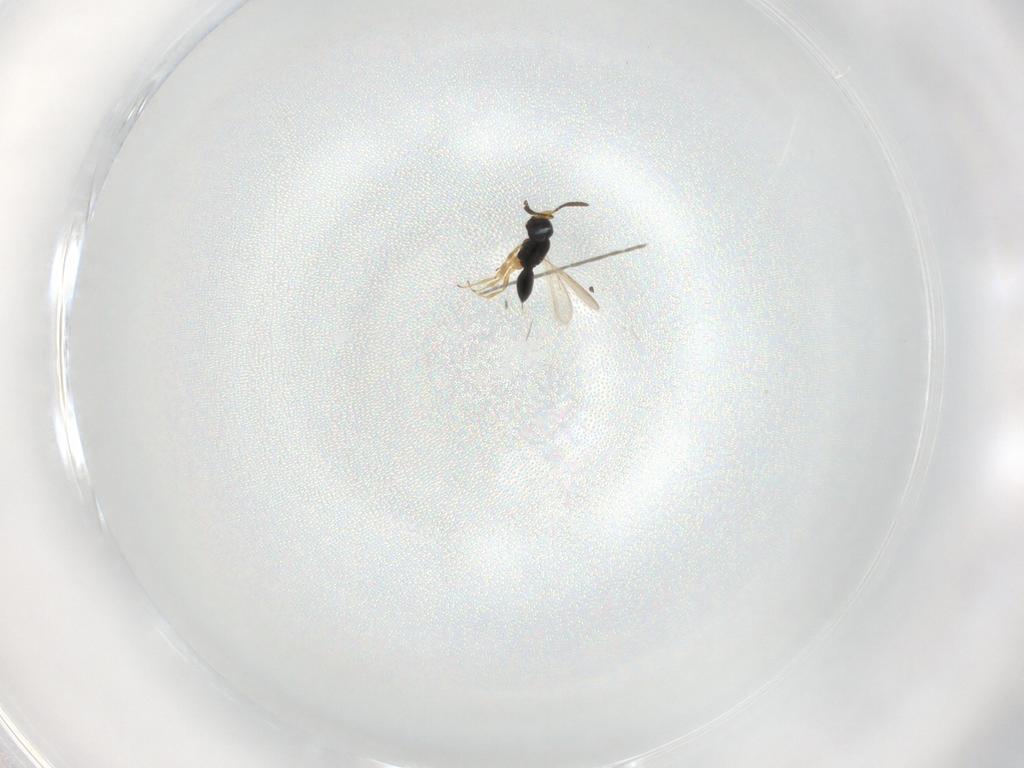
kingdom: Animalia
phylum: Arthropoda
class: Insecta
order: Hymenoptera
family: Scelionidae
